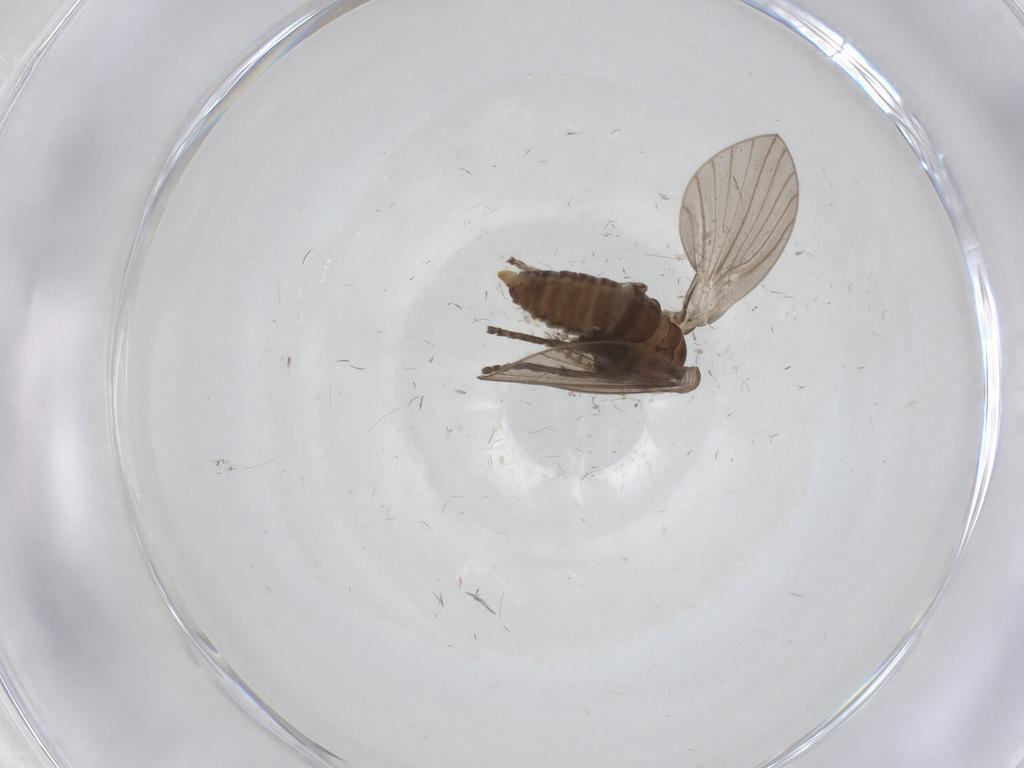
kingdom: Animalia
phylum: Arthropoda
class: Insecta
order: Diptera
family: Psychodidae
